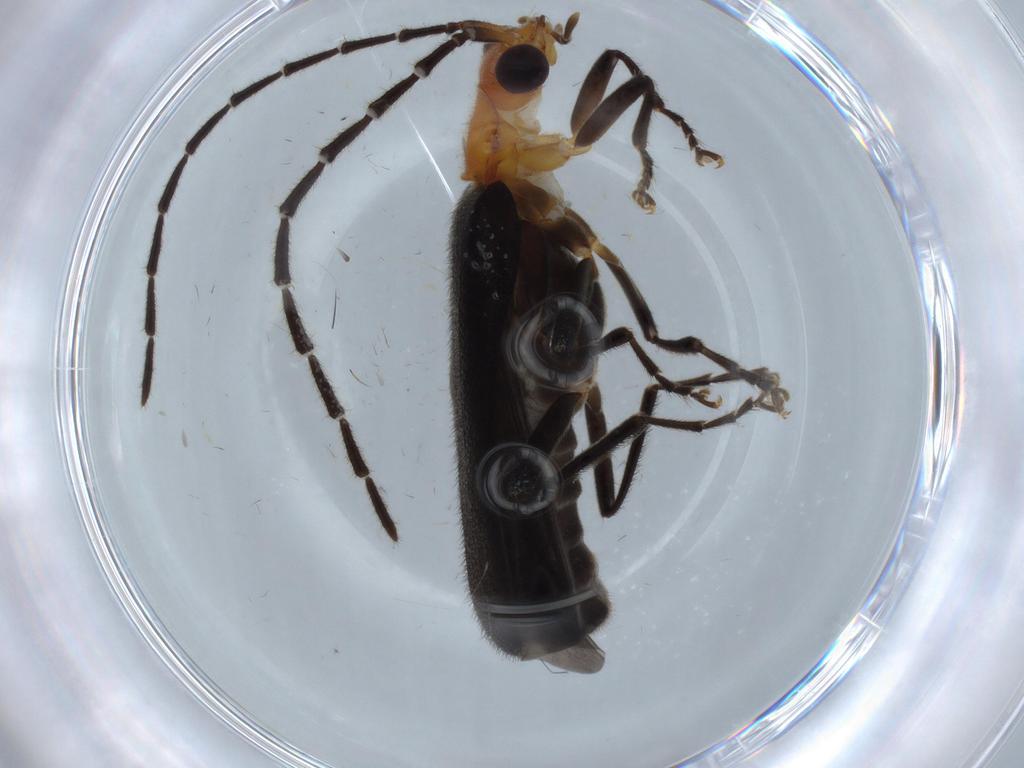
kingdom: Animalia
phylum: Arthropoda
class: Insecta
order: Coleoptera
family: Cantharidae
